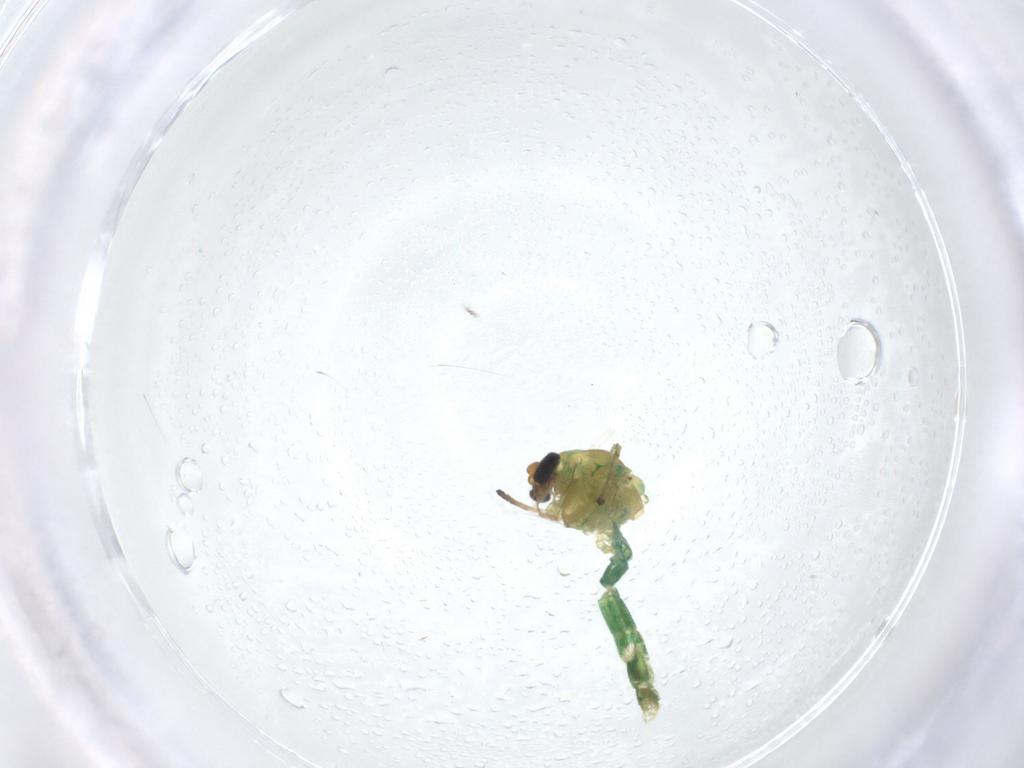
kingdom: Animalia
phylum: Arthropoda
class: Insecta
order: Diptera
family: Chironomidae
